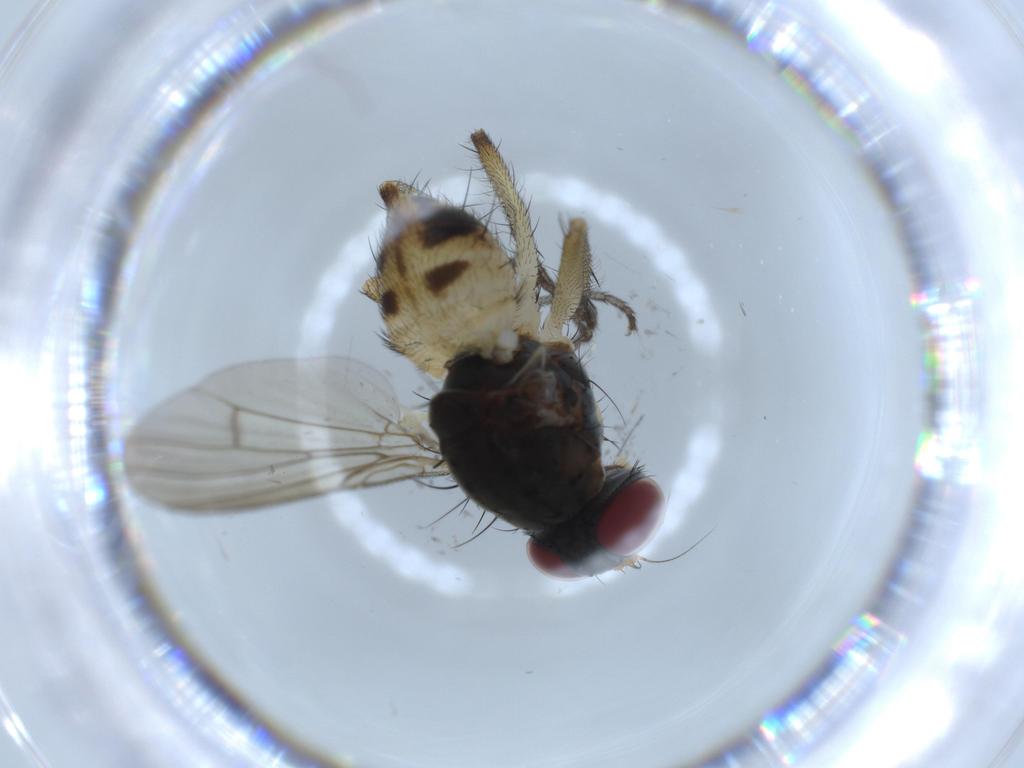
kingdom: Animalia
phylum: Arthropoda
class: Insecta
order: Diptera
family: Muscidae
